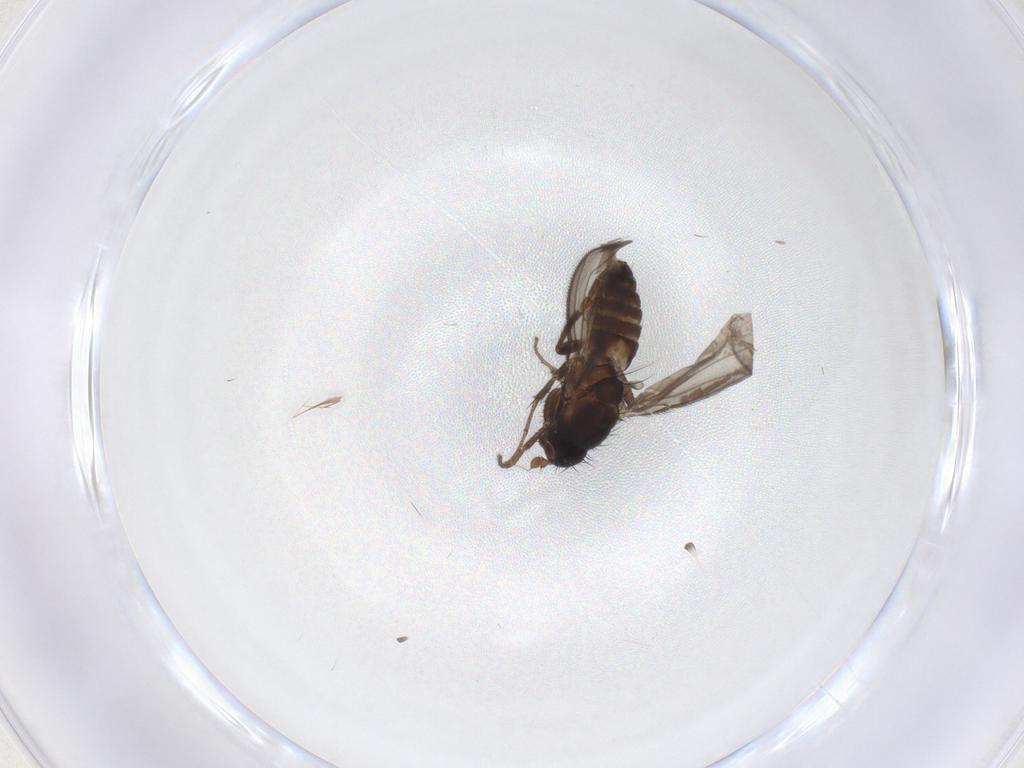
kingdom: Animalia
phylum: Arthropoda
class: Insecta
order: Diptera
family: Sphaeroceridae
